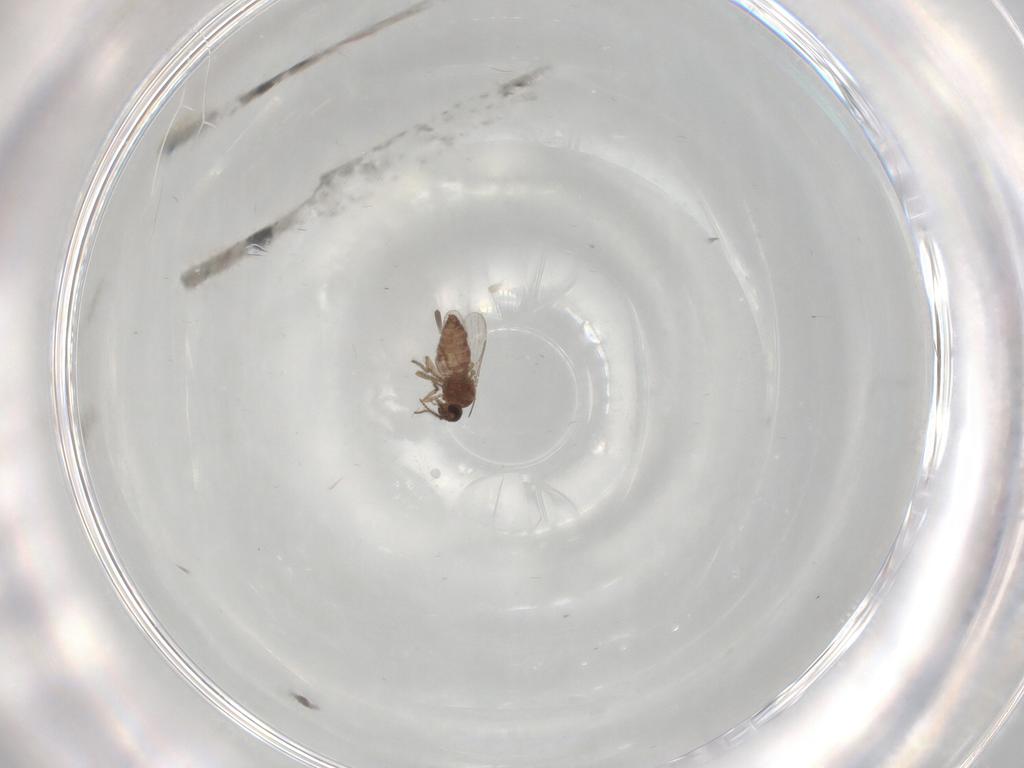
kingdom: Animalia
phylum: Arthropoda
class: Insecta
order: Diptera
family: Ceratopogonidae
